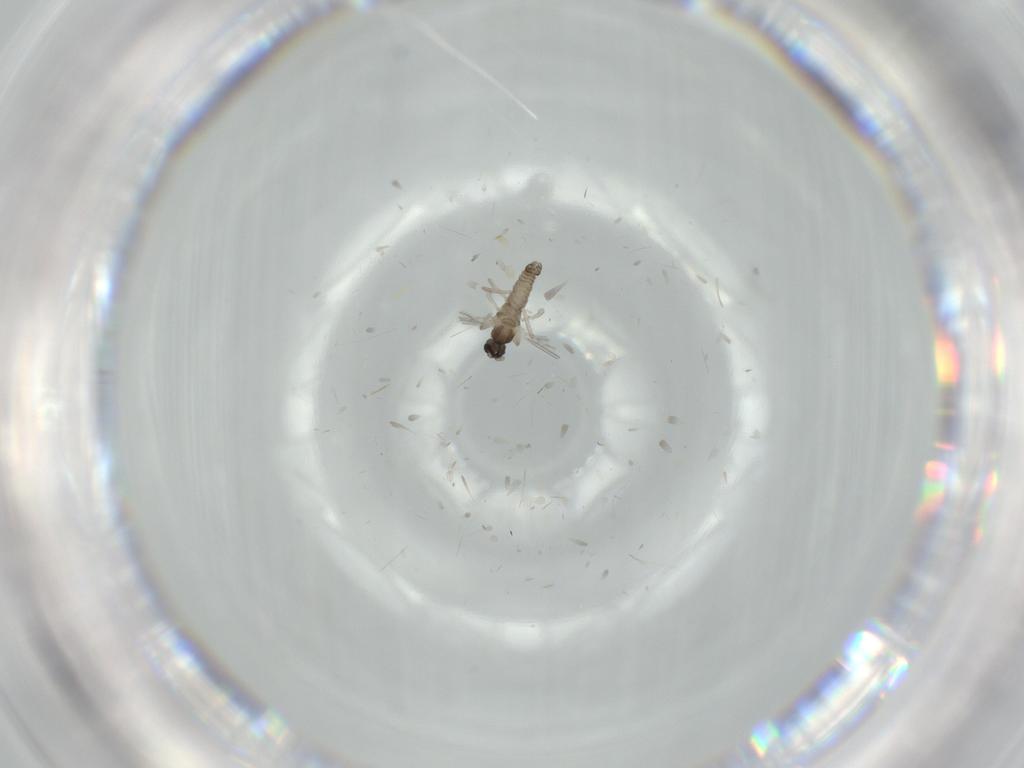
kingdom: Animalia
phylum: Arthropoda
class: Insecta
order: Diptera
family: Cecidomyiidae
